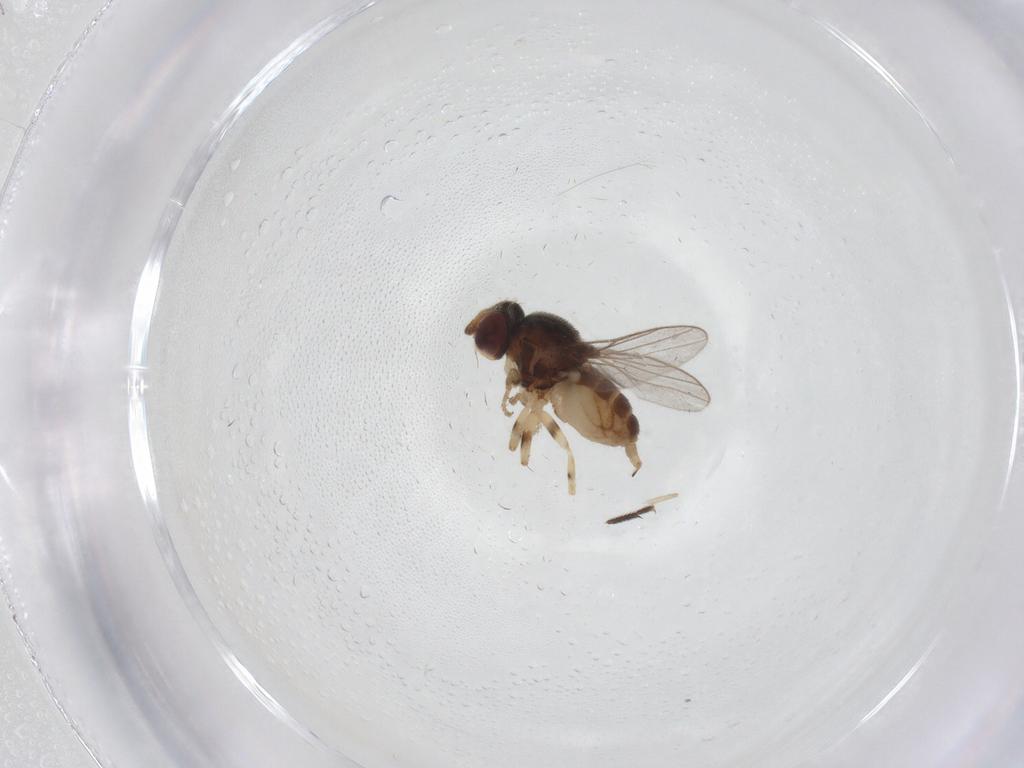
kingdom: Animalia
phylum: Arthropoda
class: Insecta
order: Diptera
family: Chloropidae
